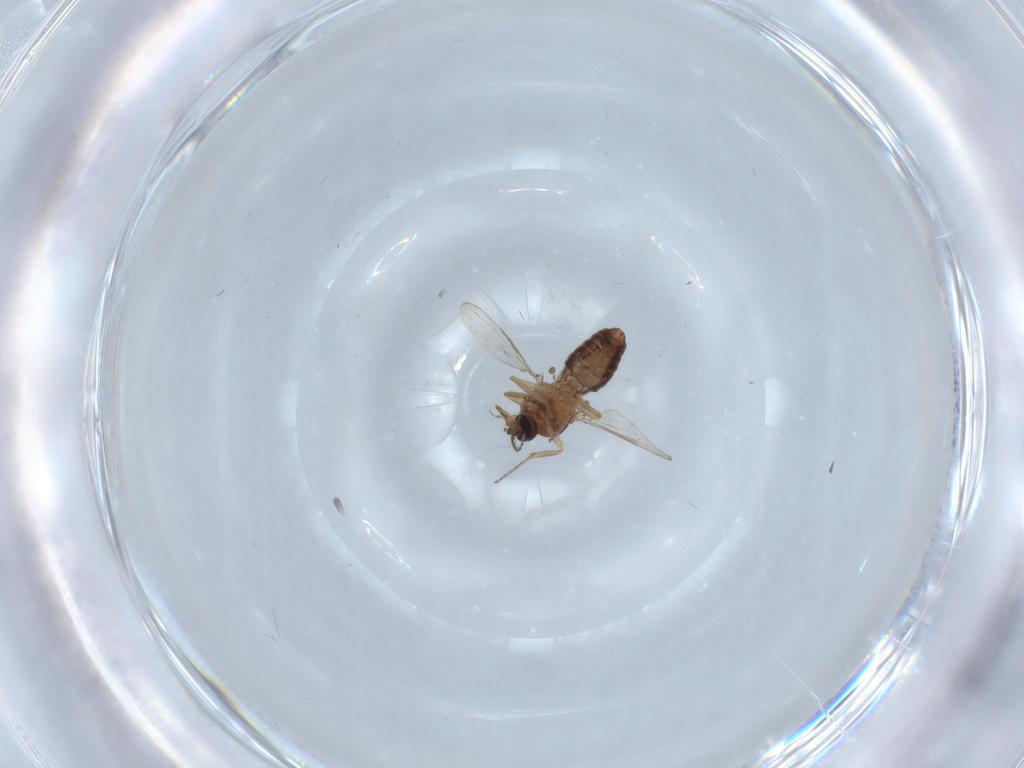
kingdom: Animalia
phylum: Arthropoda
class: Insecta
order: Diptera
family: Ceratopogonidae
